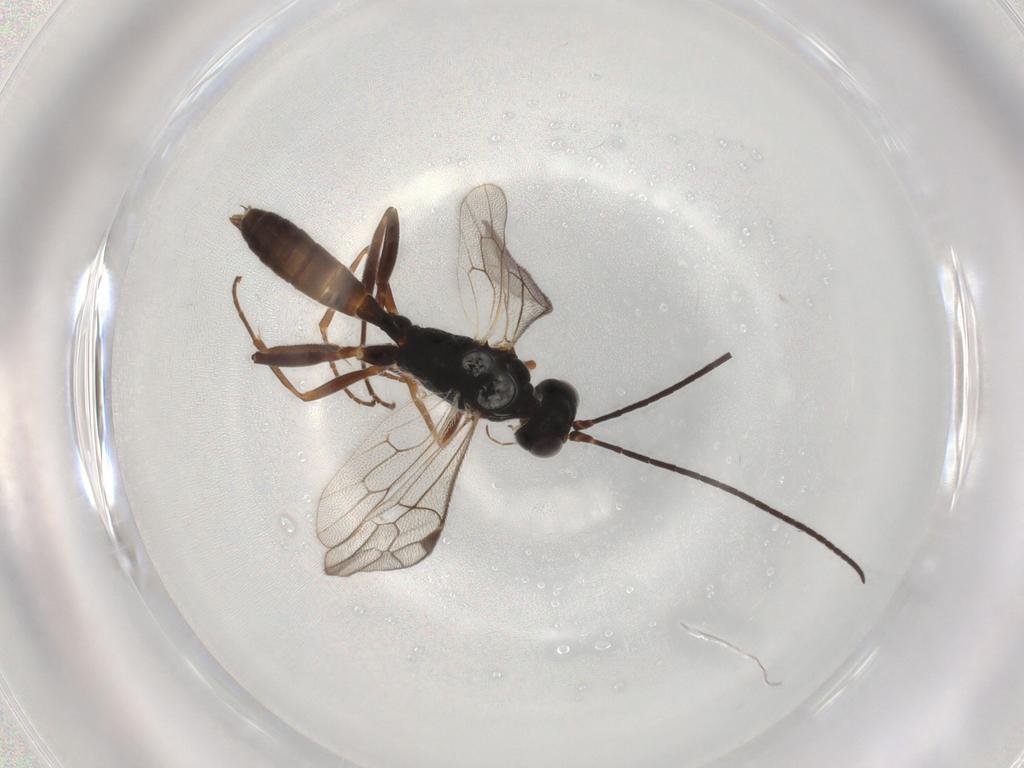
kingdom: Animalia
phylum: Arthropoda
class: Insecta
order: Hymenoptera
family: Ichneumonidae
